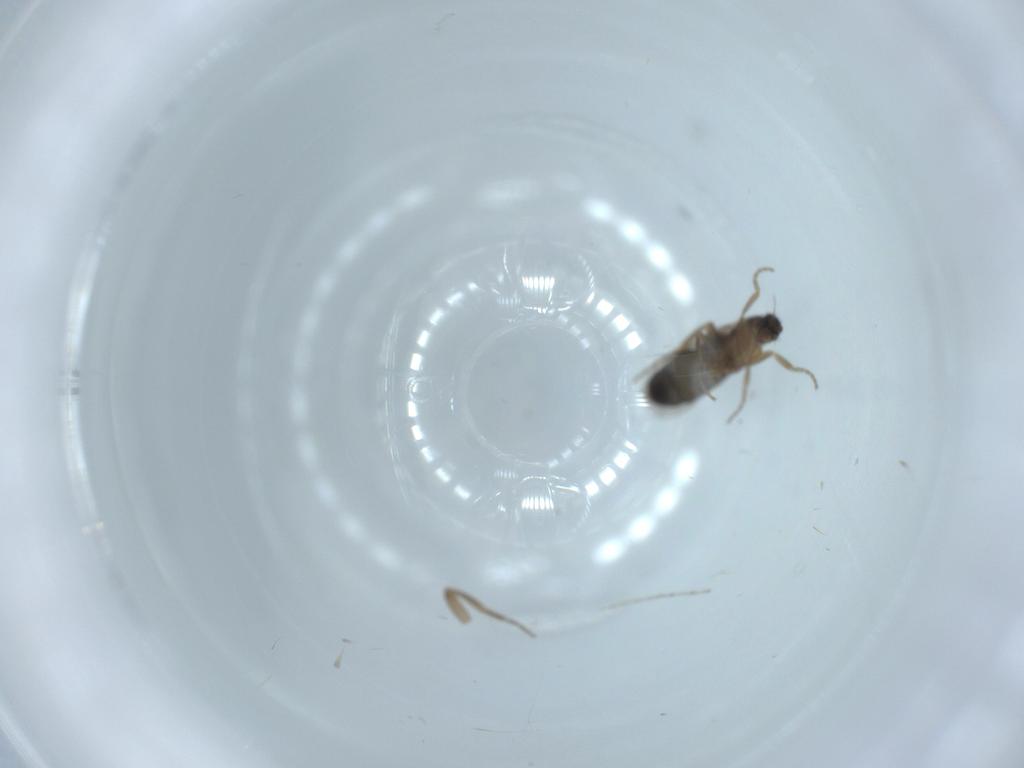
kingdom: Animalia
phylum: Arthropoda
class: Insecta
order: Diptera
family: Cecidomyiidae
